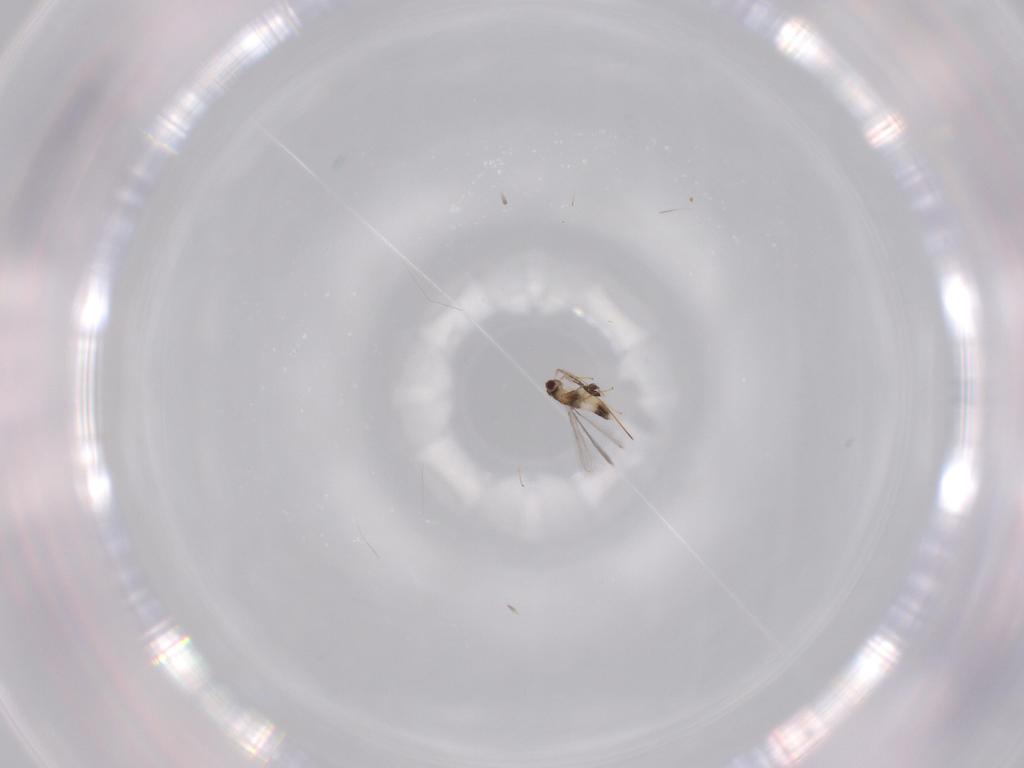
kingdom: Animalia
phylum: Arthropoda
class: Insecta
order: Hymenoptera
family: Mymaridae
